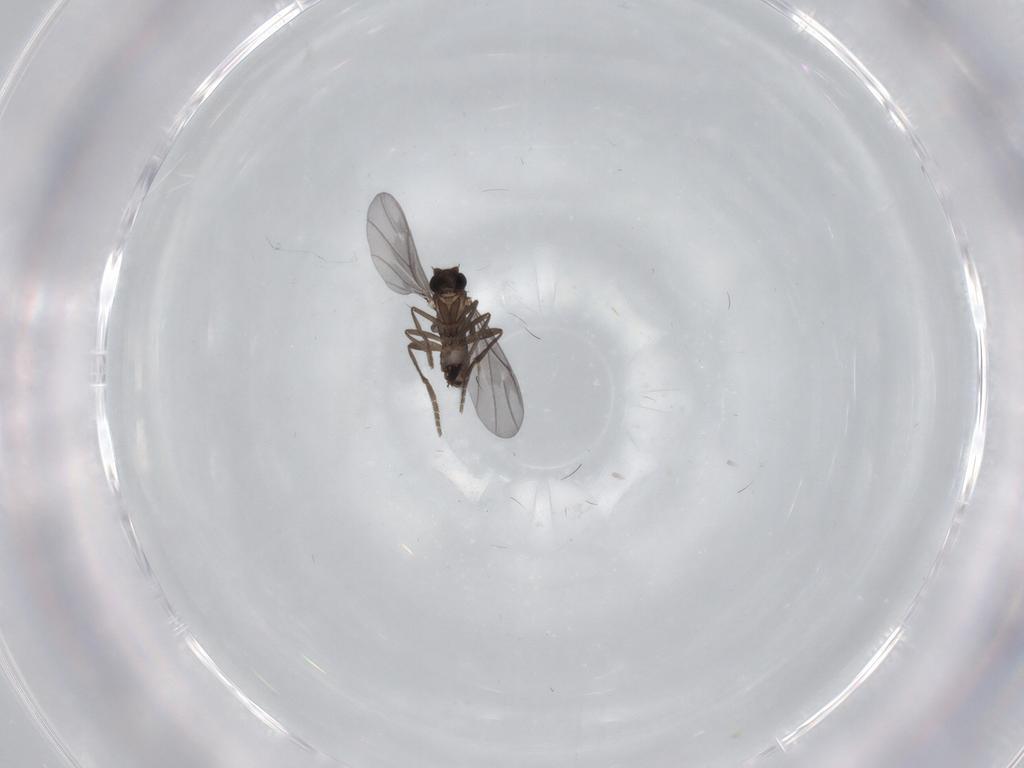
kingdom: Animalia
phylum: Arthropoda
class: Insecta
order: Diptera
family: Phoridae
